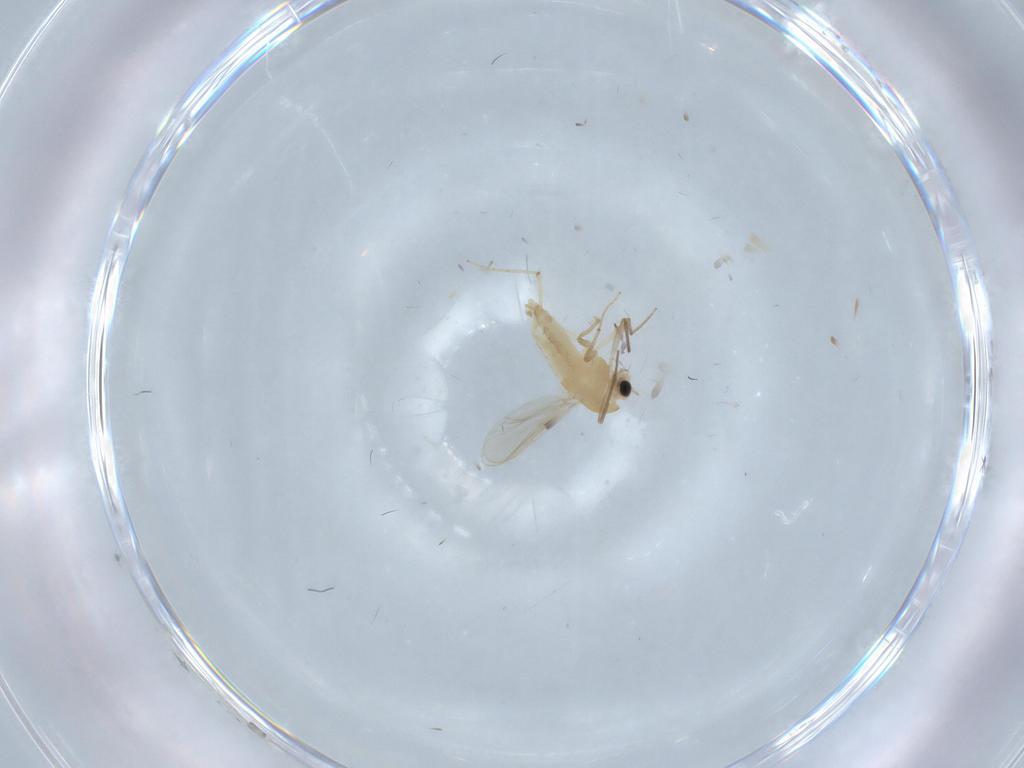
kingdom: Animalia
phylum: Arthropoda
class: Insecta
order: Diptera
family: Chironomidae
